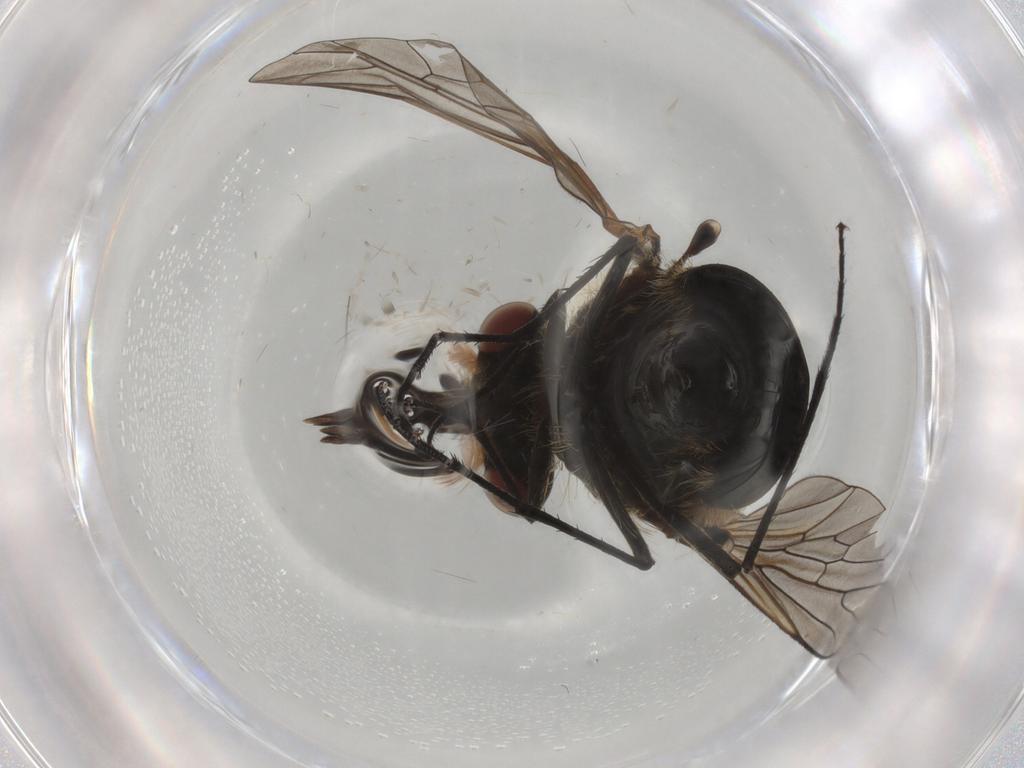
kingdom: Animalia
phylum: Arthropoda
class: Insecta
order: Diptera
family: Bombyliidae
